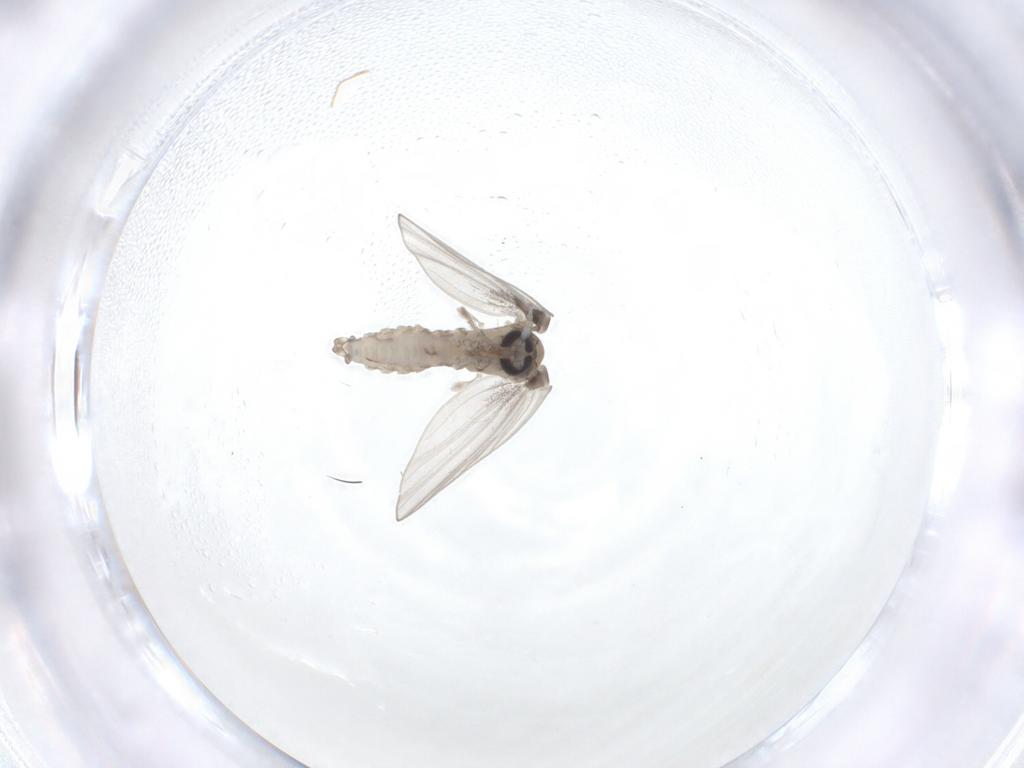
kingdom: Animalia
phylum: Arthropoda
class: Insecta
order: Diptera
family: Psychodidae
